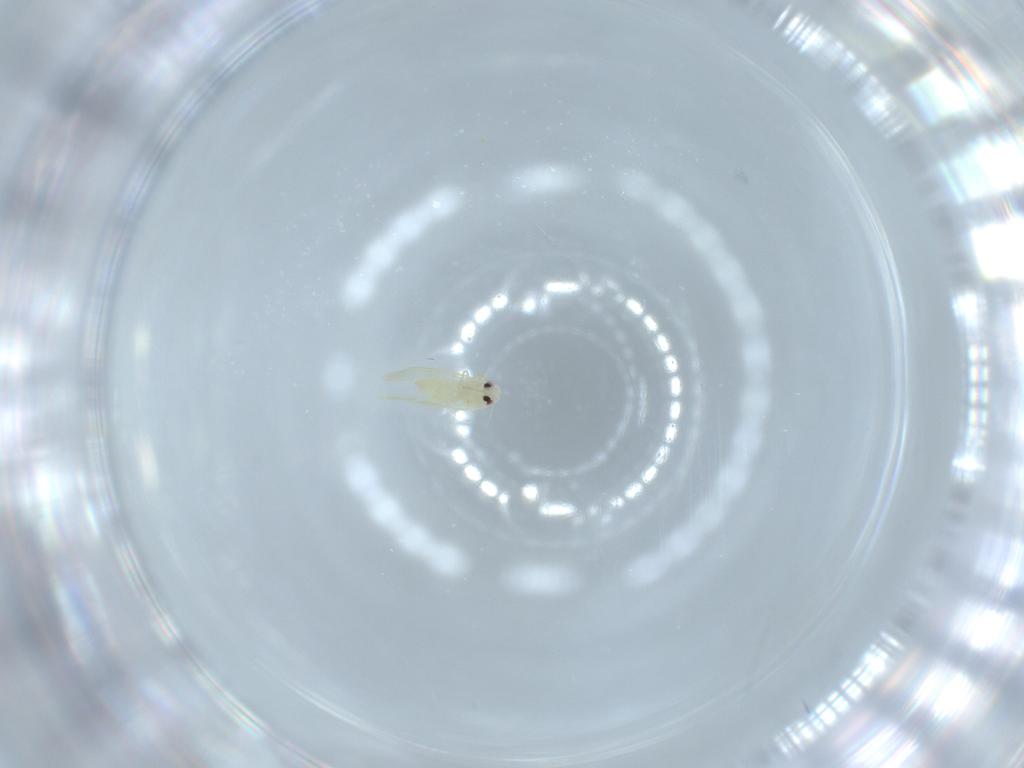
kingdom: Animalia
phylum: Arthropoda
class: Insecta
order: Hemiptera
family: Aleyrodidae
